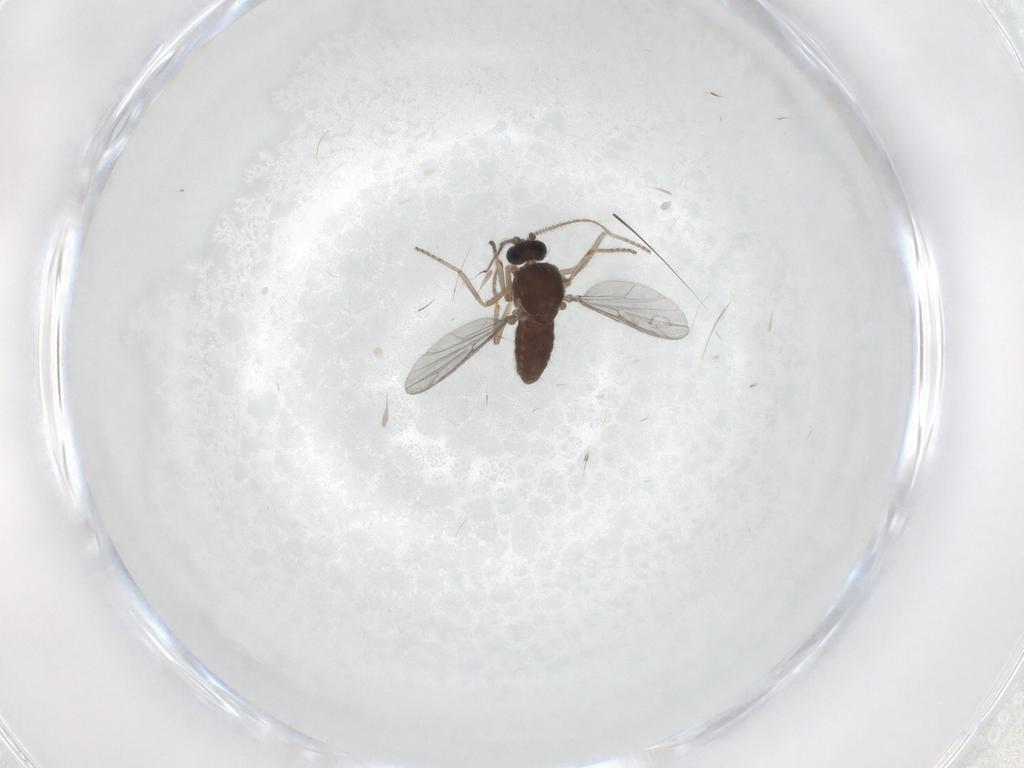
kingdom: Animalia
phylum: Arthropoda
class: Insecta
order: Diptera
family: Ceratopogonidae
